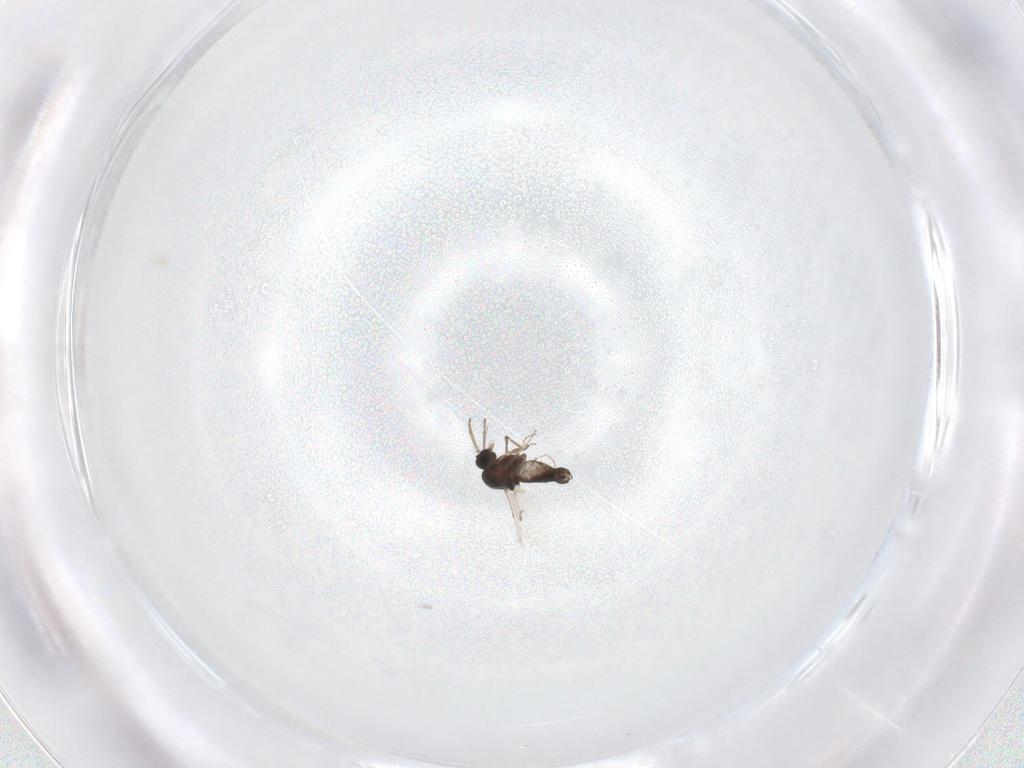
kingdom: Animalia
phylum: Arthropoda
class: Insecta
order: Diptera
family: Ceratopogonidae
